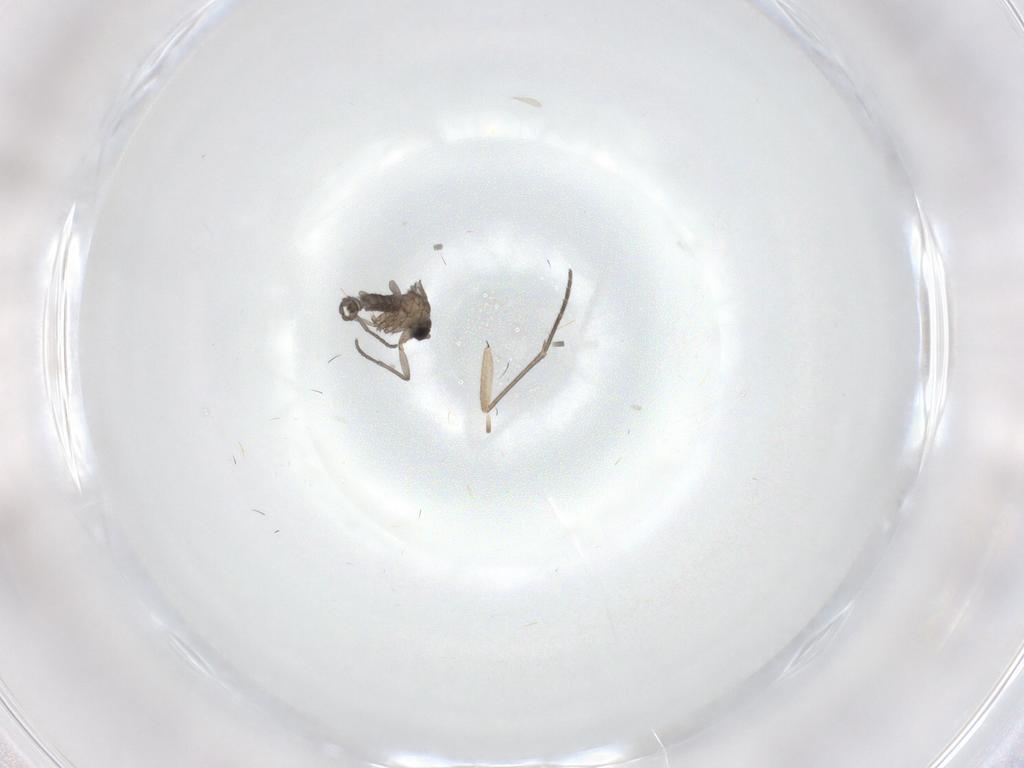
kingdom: Animalia
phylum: Arthropoda
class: Insecta
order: Diptera
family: Sciaridae
